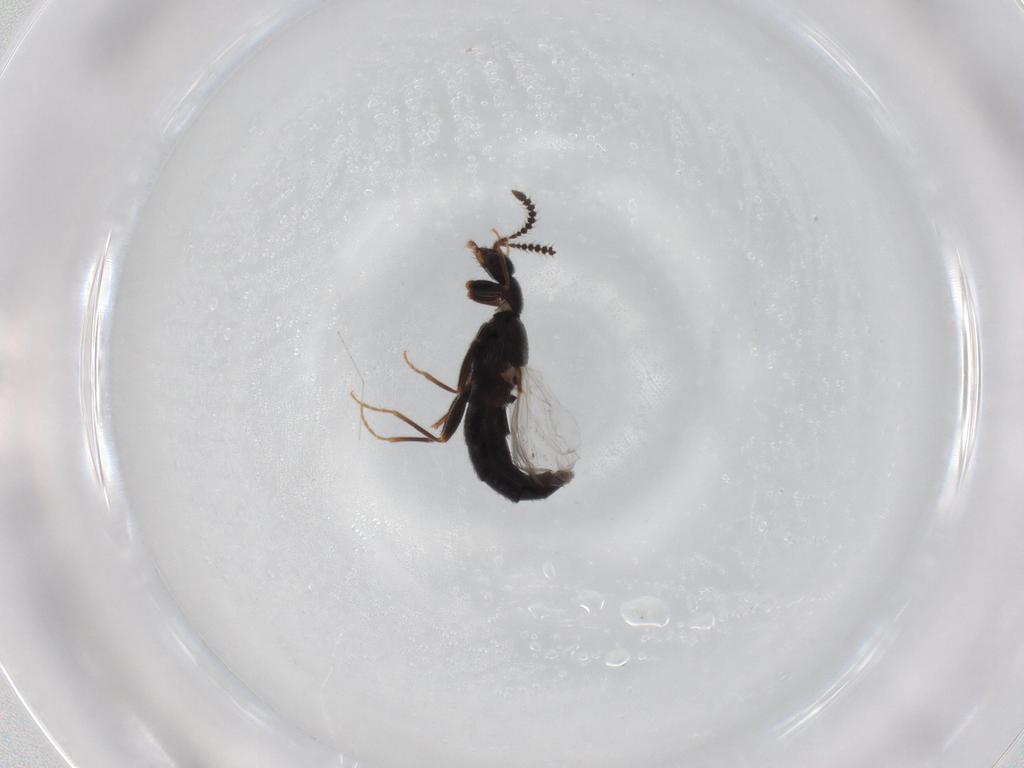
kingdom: Animalia
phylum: Arthropoda
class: Insecta
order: Coleoptera
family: Staphylinidae
